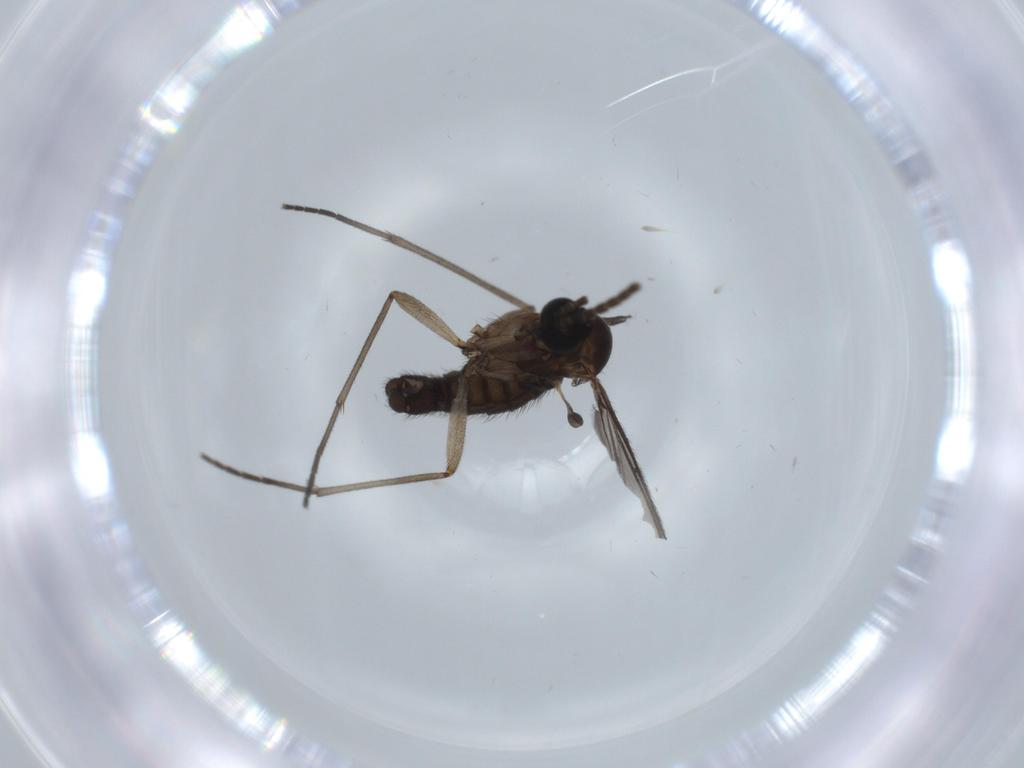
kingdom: Animalia
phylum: Arthropoda
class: Insecta
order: Diptera
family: Sciaridae
